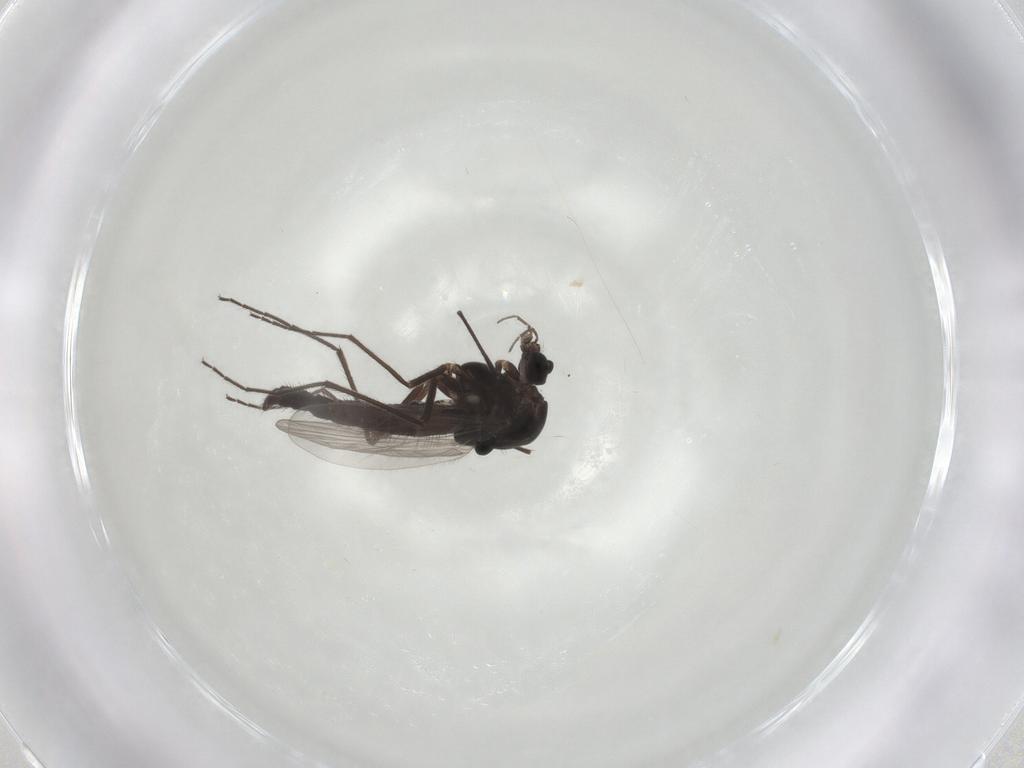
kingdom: Animalia
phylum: Arthropoda
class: Insecta
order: Diptera
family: Chironomidae
